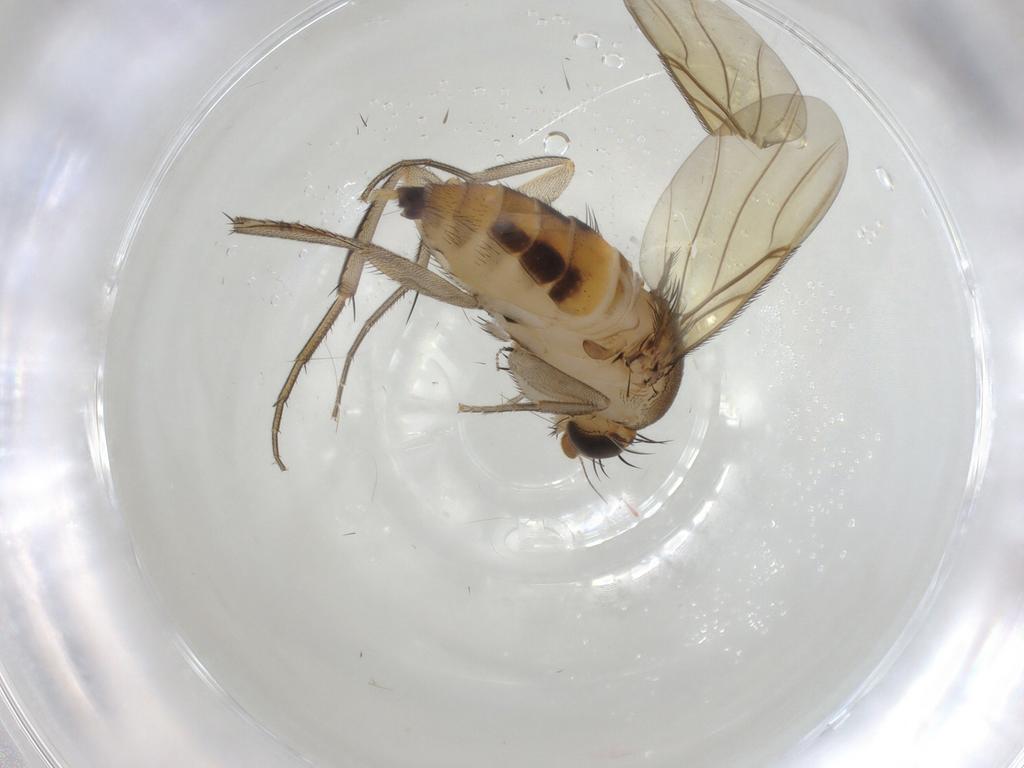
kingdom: Animalia
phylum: Arthropoda
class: Insecta
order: Diptera
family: Phoridae
